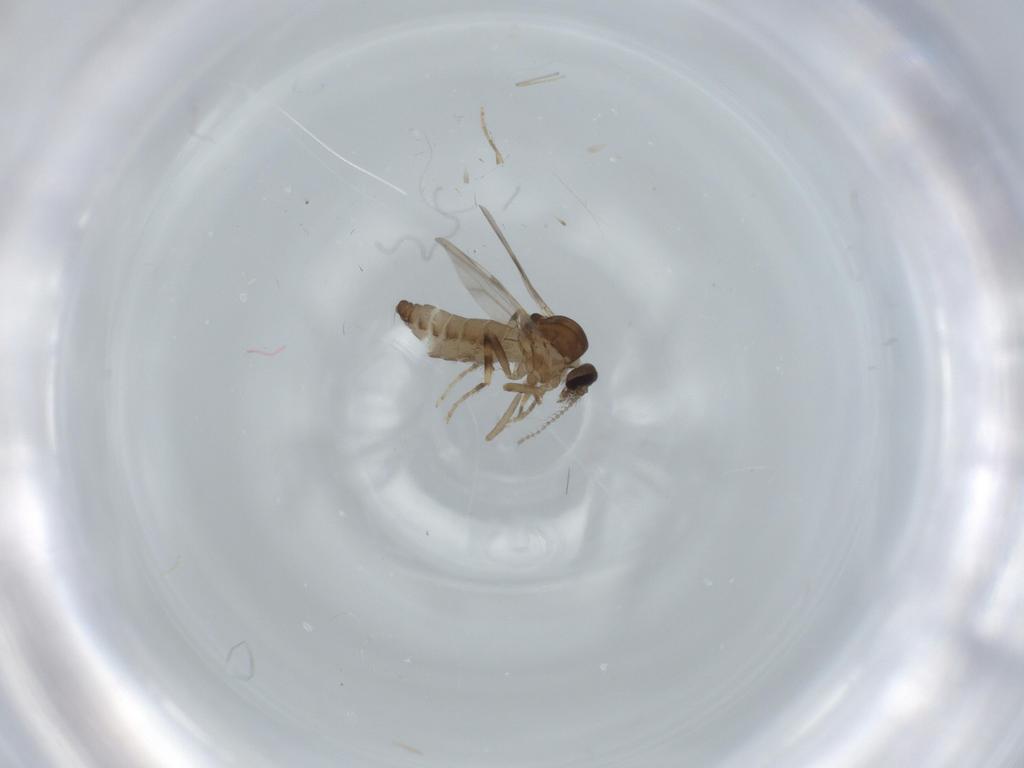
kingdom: Animalia
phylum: Arthropoda
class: Insecta
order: Diptera
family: Ceratopogonidae
